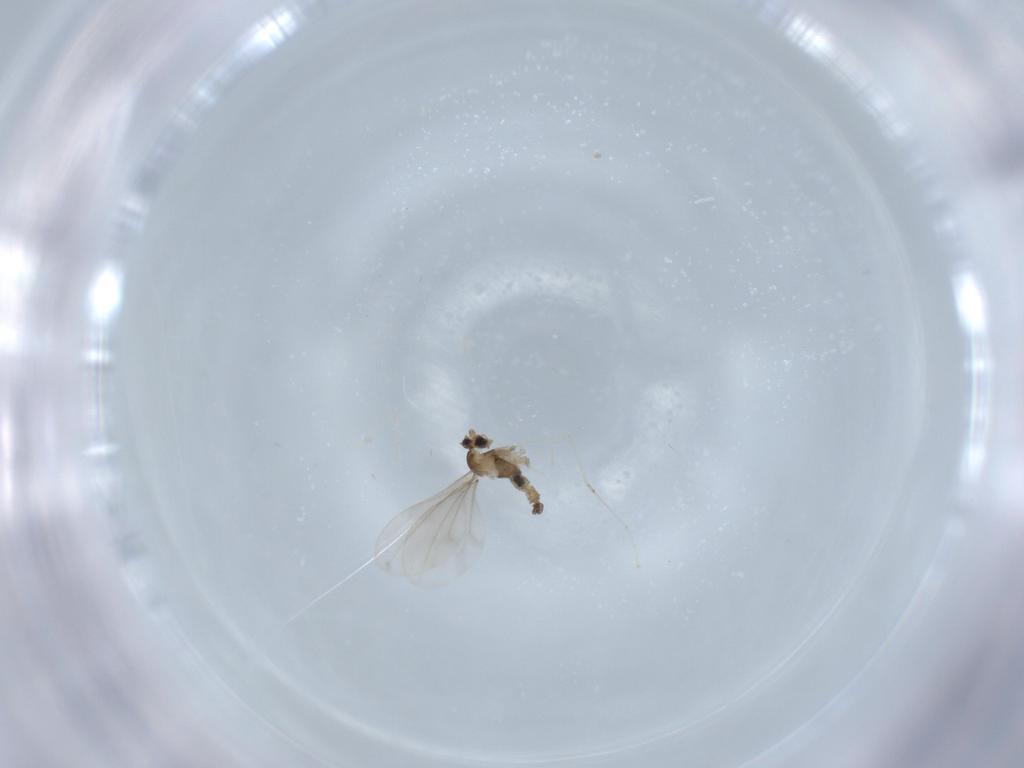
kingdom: Animalia
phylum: Arthropoda
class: Insecta
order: Diptera
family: Cecidomyiidae
